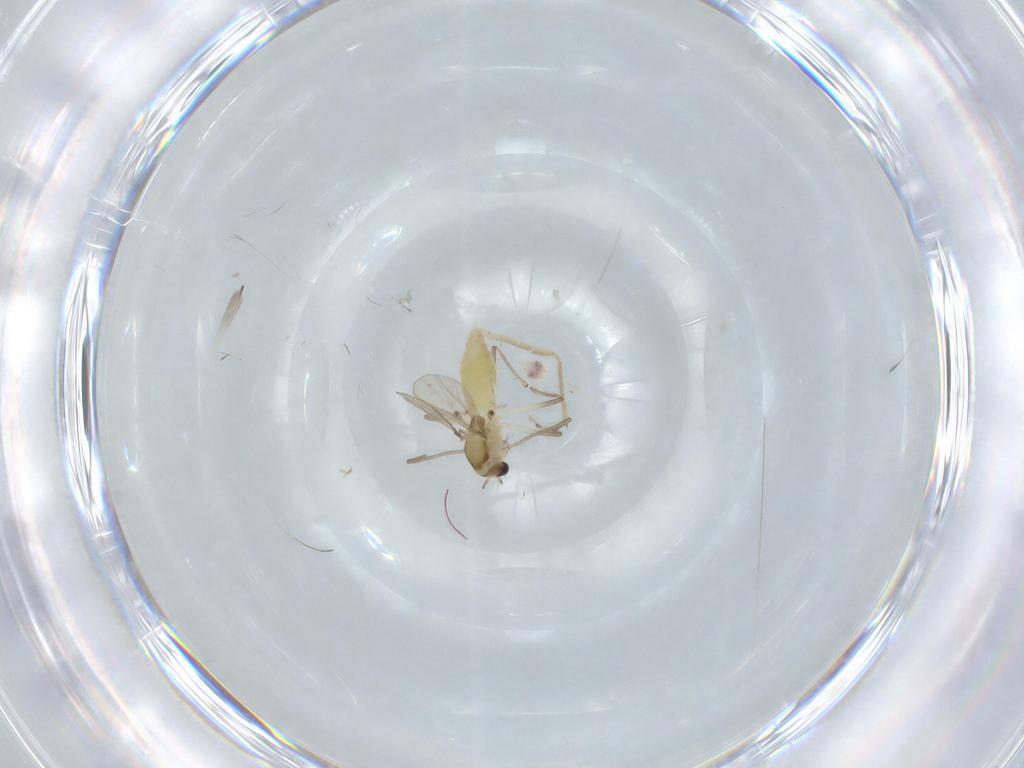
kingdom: Animalia
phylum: Arthropoda
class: Insecta
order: Diptera
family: Chironomidae
